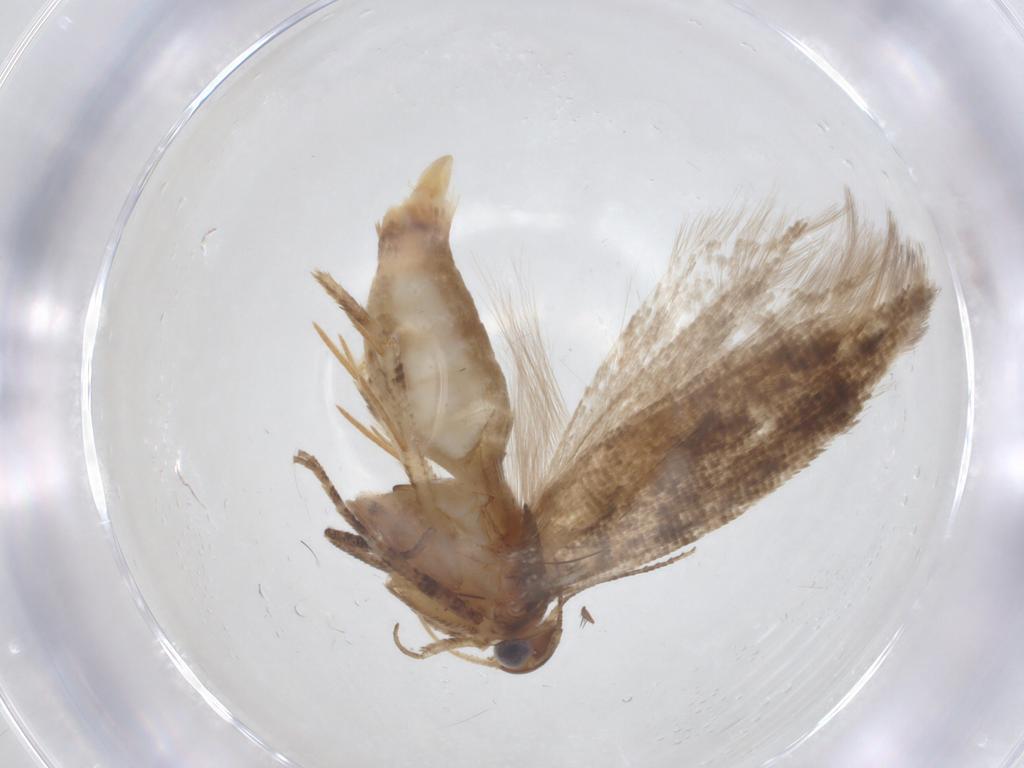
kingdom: Animalia
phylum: Arthropoda
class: Insecta
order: Lepidoptera
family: Gelechiidae
